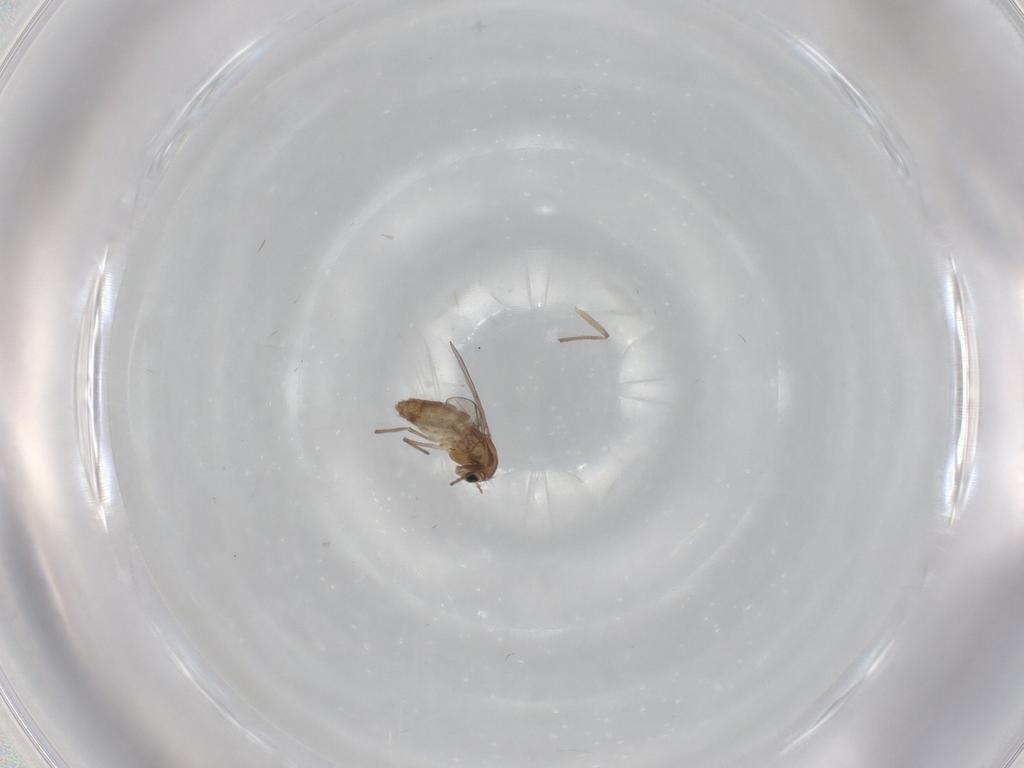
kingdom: Animalia
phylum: Arthropoda
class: Insecta
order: Diptera
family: Chironomidae
